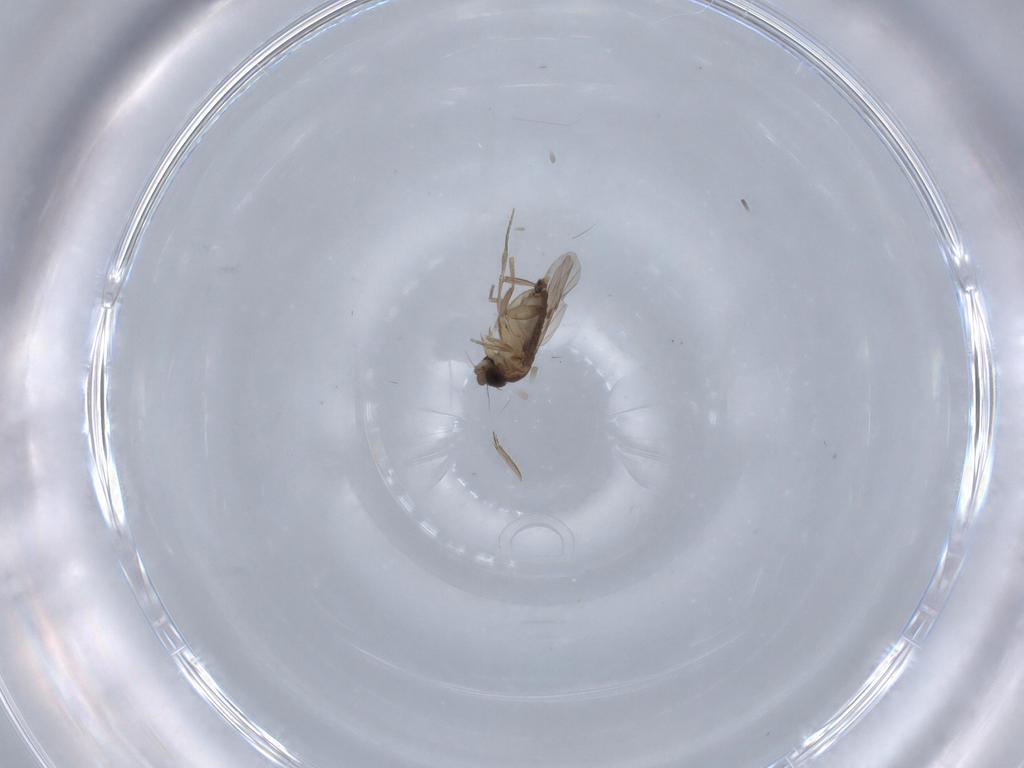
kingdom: Animalia
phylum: Arthropoda
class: Insecta
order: Diptera
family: Phoridae
